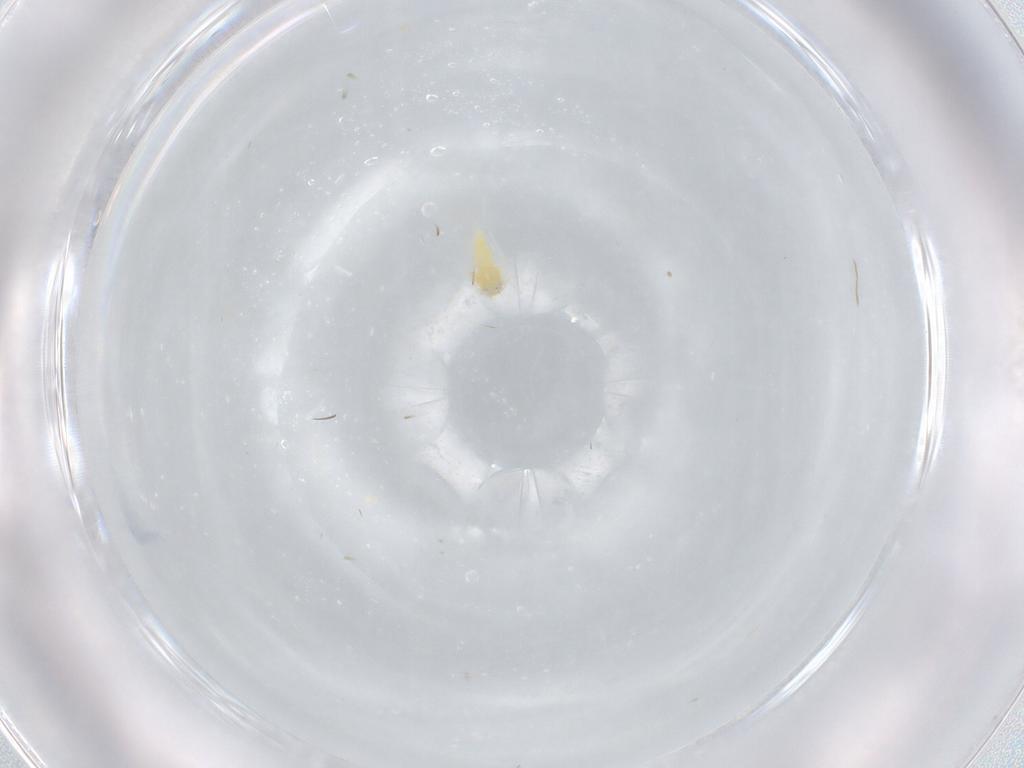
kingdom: Animalia
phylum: Arthropoda
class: Insecta
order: Hemiptera
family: Aleyrodidae
